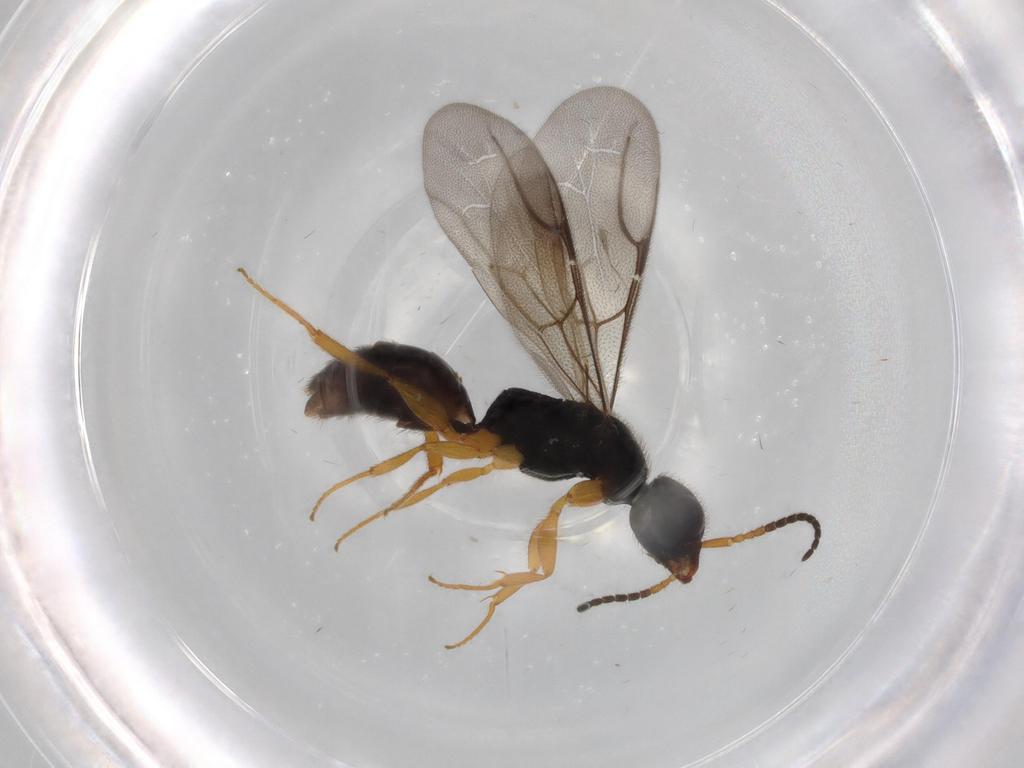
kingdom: Animalia
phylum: Arthropoda
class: Insecta
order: Hymenoptera
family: Bethylidae
